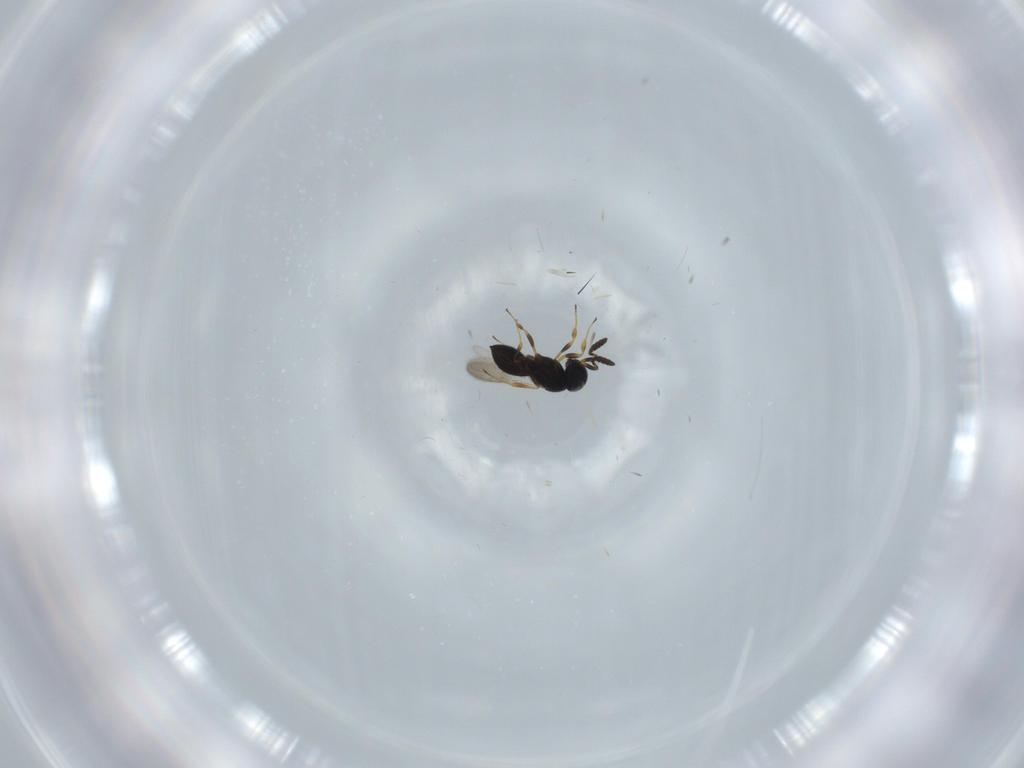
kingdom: Animalia
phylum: Arthropoda
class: Insecta
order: Hymenoptera
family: Scelionidae
